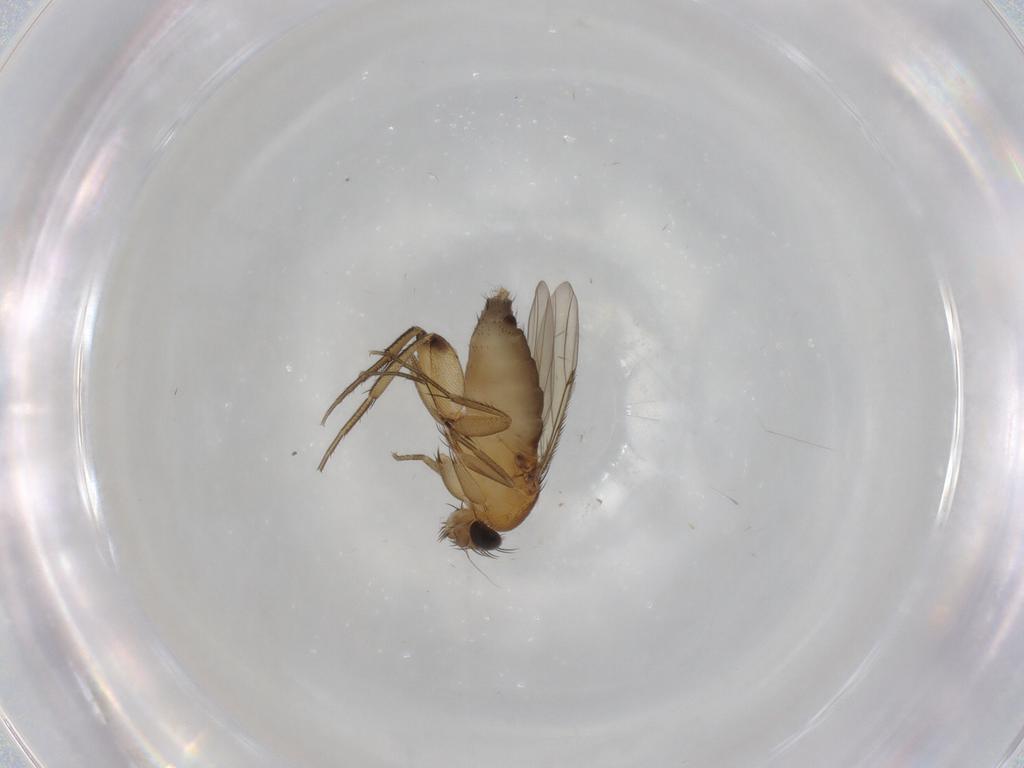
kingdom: Animalia
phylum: Arthropoda
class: Insecta
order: Diptera
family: Phoridae
